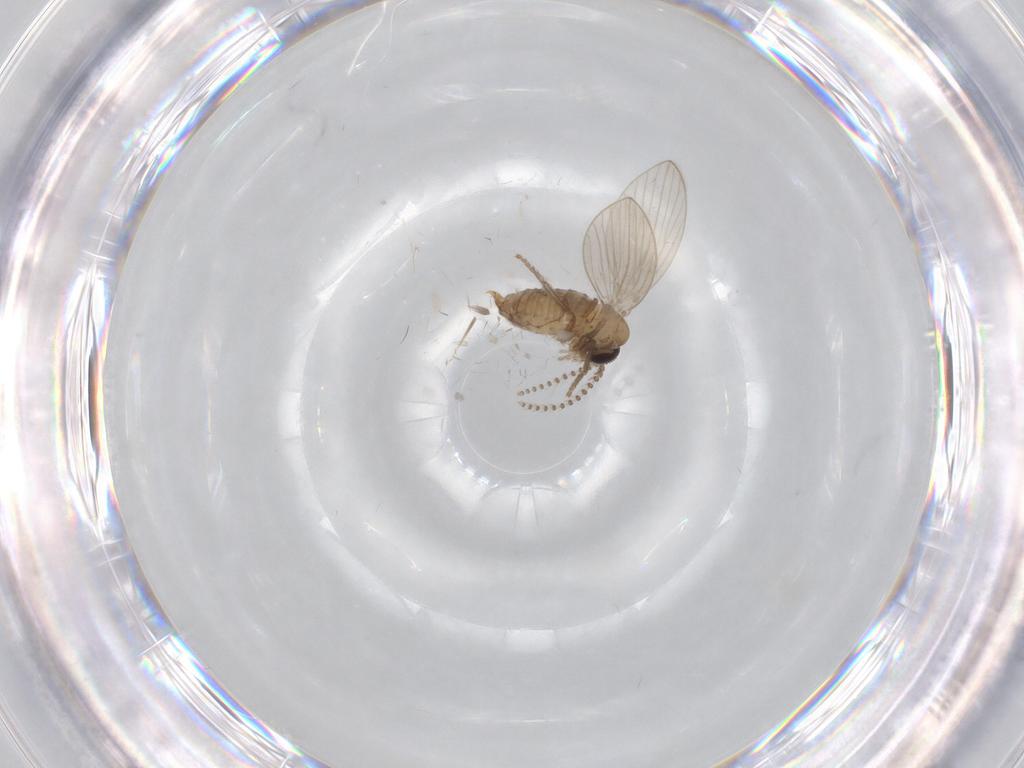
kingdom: Animalia
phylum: Arthropoda
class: Insecta
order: Diptera
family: Psychodidae
